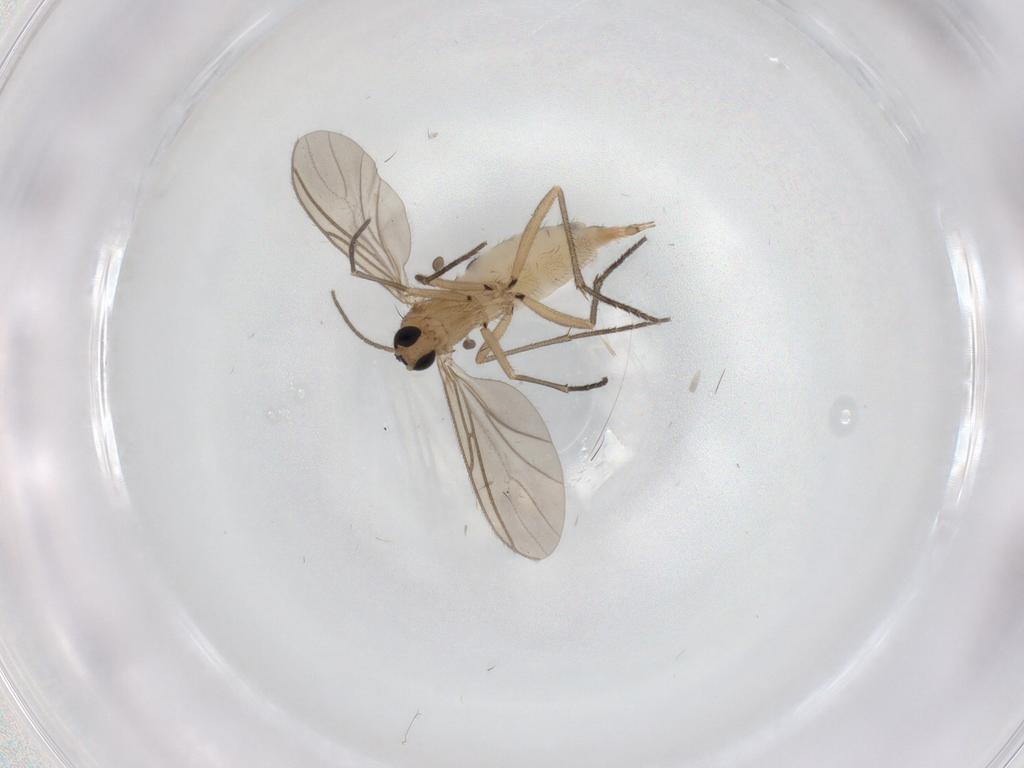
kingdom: Animalia
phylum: Arthropoda
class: Insecta
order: Diptera
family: Sciaridae
